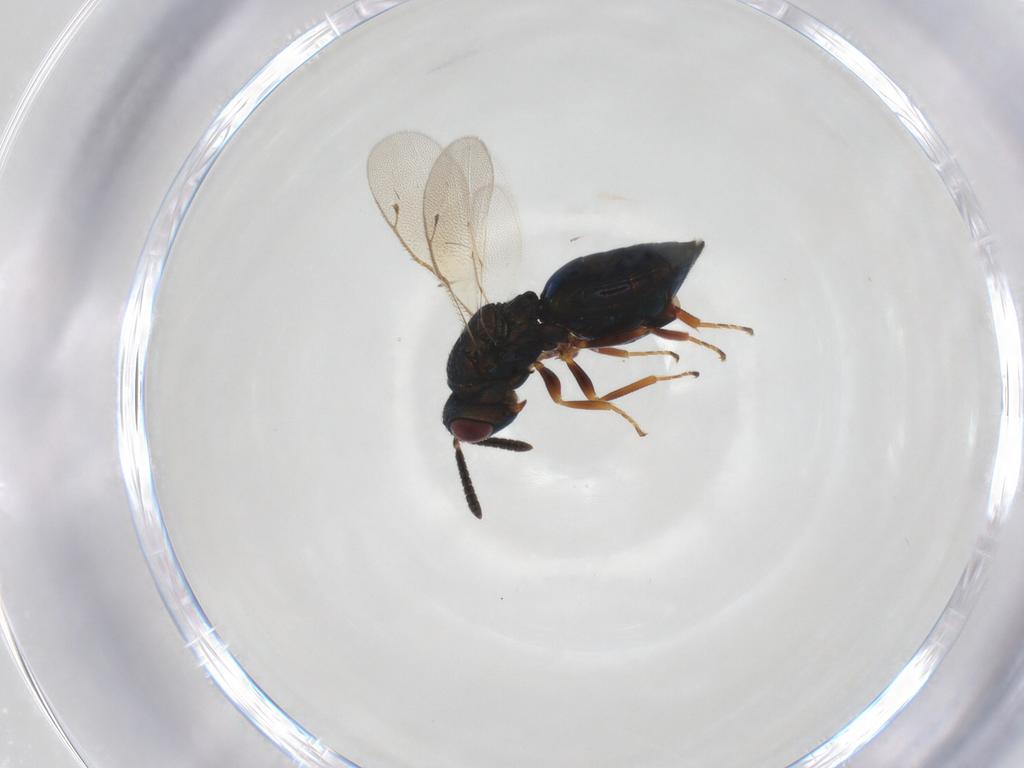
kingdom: Animalia
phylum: Arthropoda
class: Insecta
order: Hymenoptera
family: Pteromalidae
